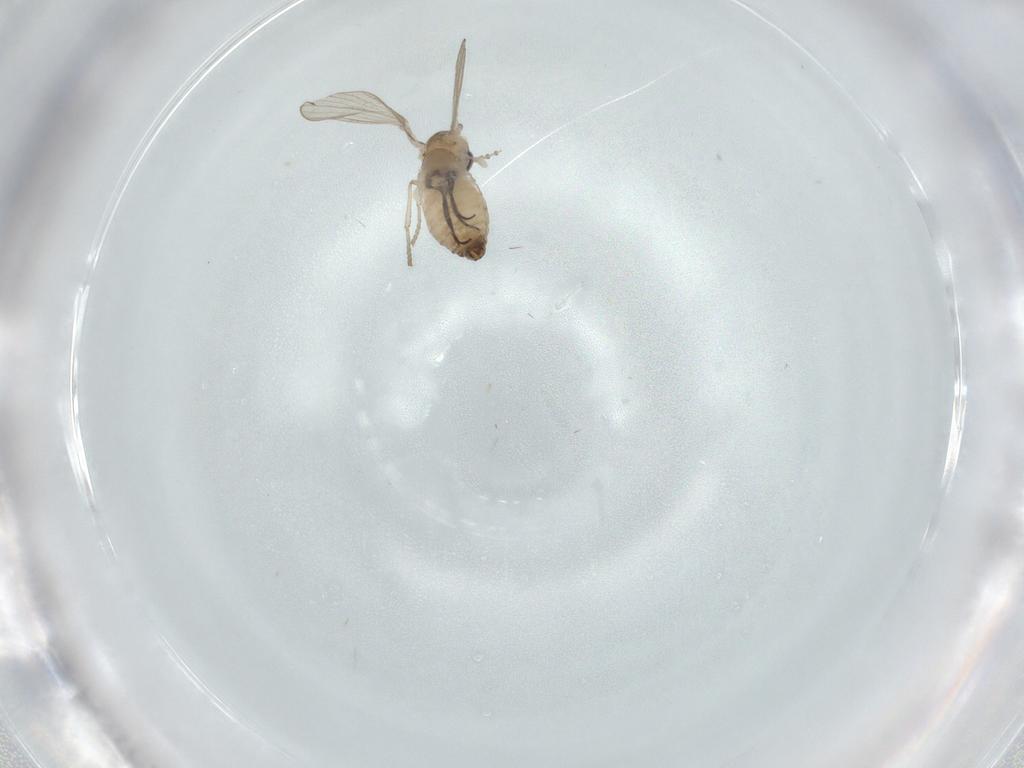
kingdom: Animalia
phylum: Arthropoda
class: Insecta
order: Diptera
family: Psychodidae
